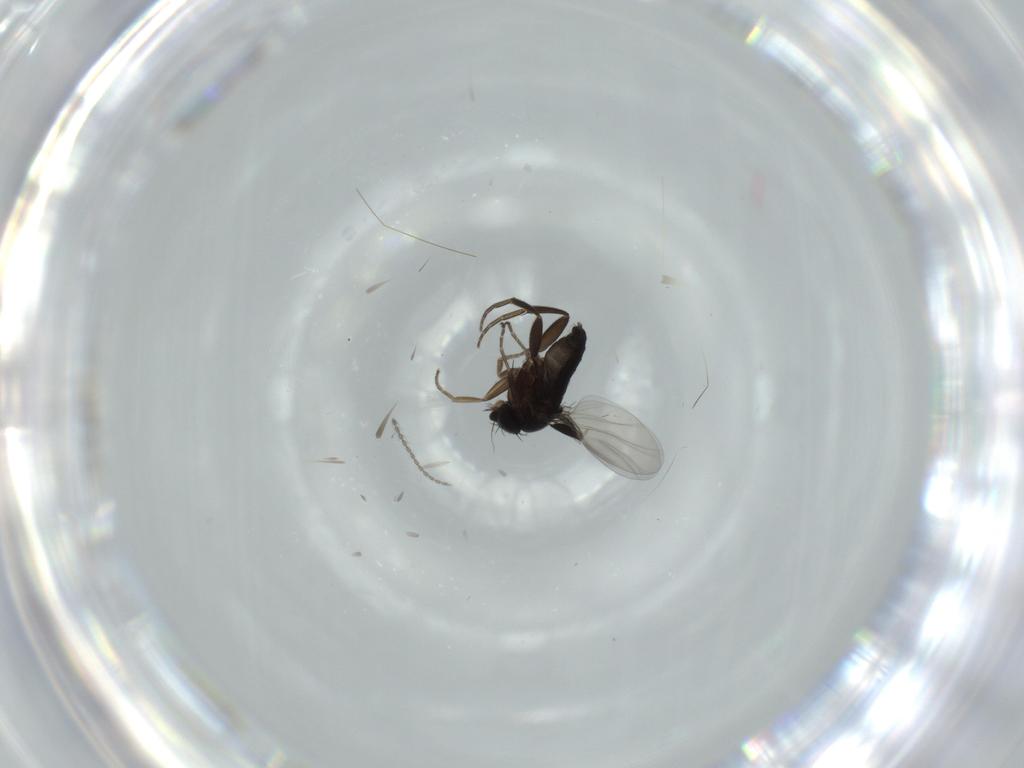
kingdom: Animalia
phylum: Arthropoda
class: Insecta
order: Diptera
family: Phoridae
